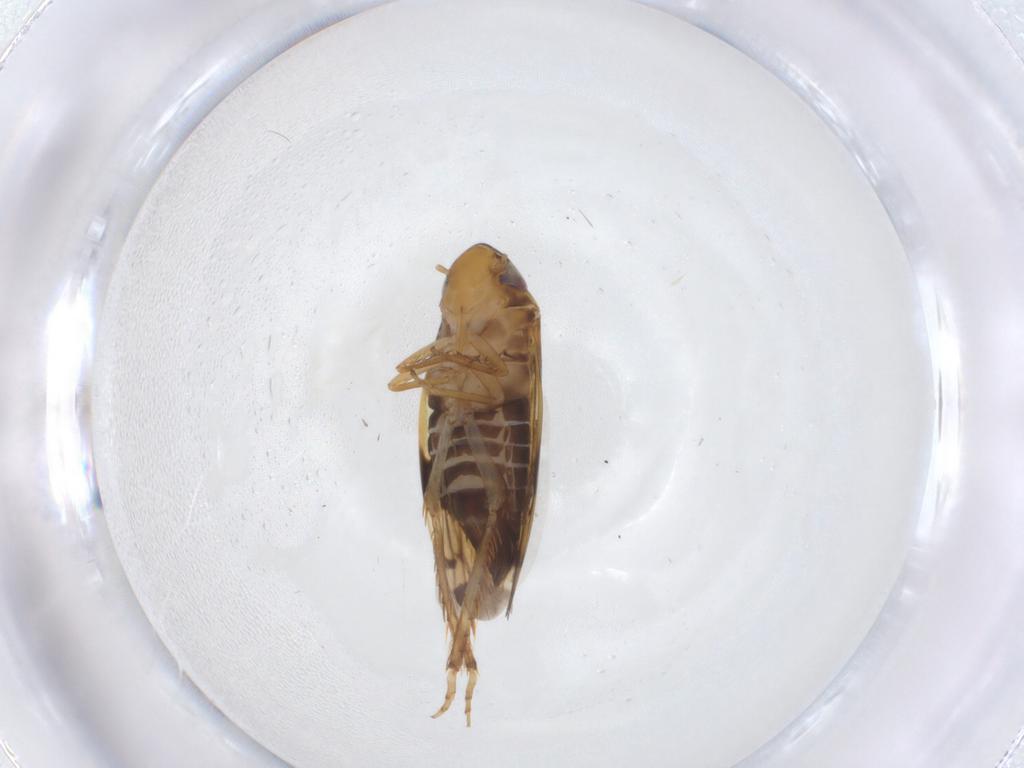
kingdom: Animalia
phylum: Arthropoda
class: Insecta
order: Hemiptera
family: Cicadellidae
